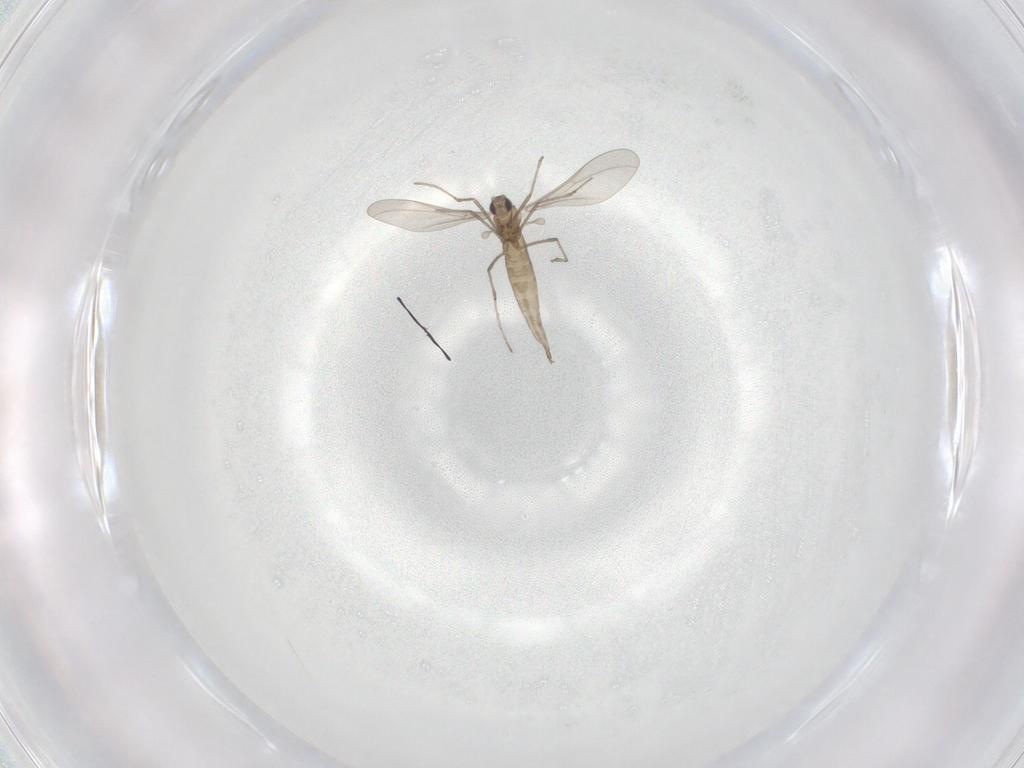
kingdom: Animalia
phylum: Arthropoda
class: Insecta
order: Diptera
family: Cecidomyiidae
